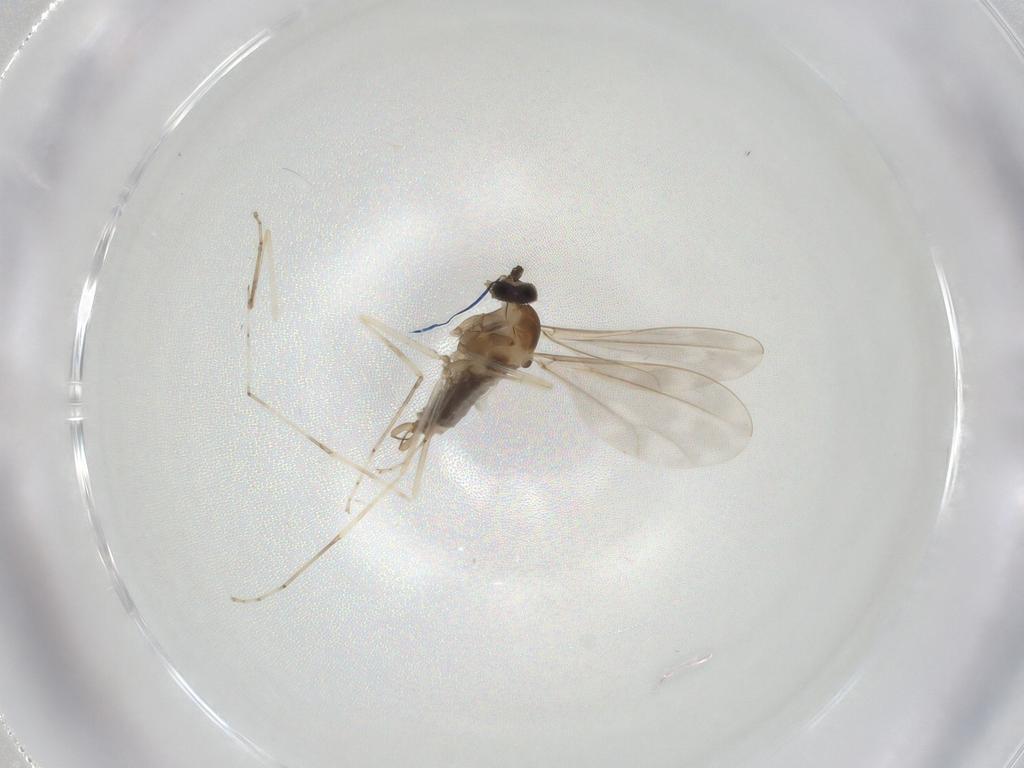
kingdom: Animalia
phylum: Arthropoda
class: Insecta
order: Diptera
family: Cecidomyiidae
